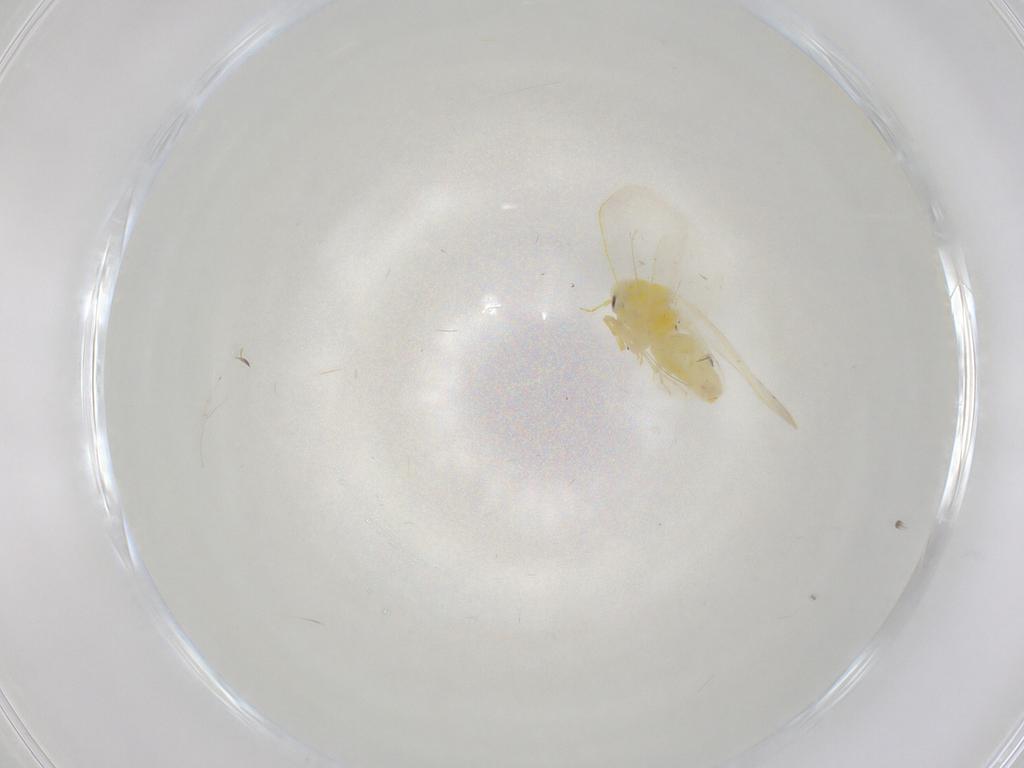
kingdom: Animalia
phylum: Arthropoda
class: Insecta
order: Hemiptera
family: Aleyrodidae
